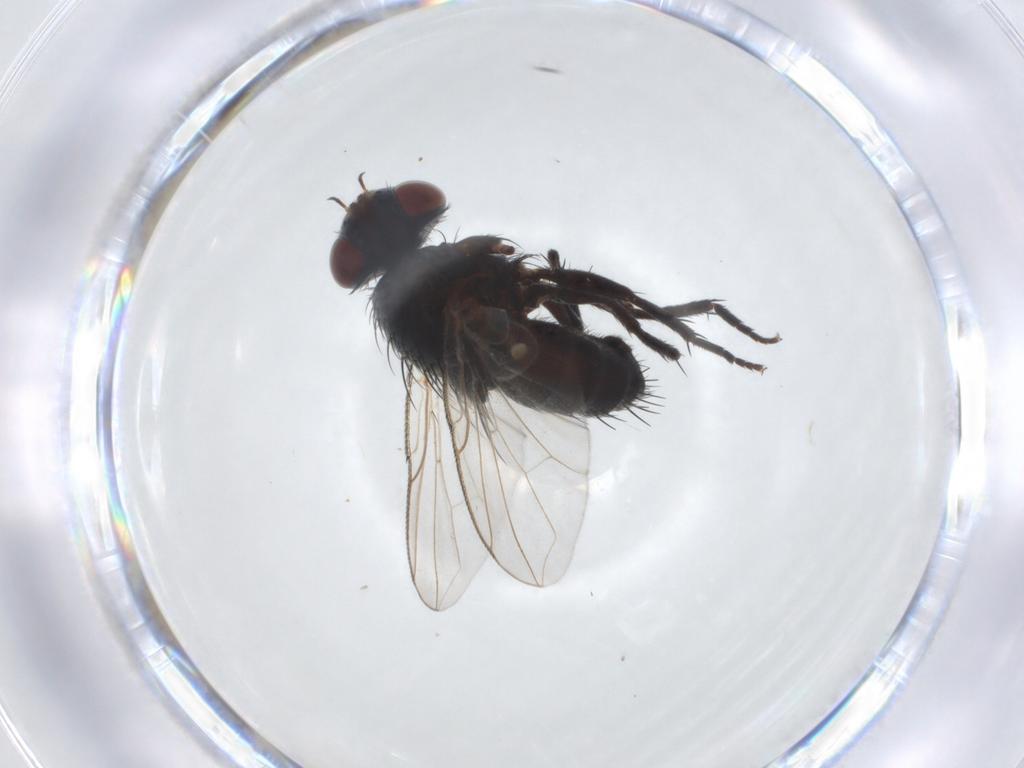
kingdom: Animalia
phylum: Arthropoda
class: Insecta
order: Diptera
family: Tachinidae
